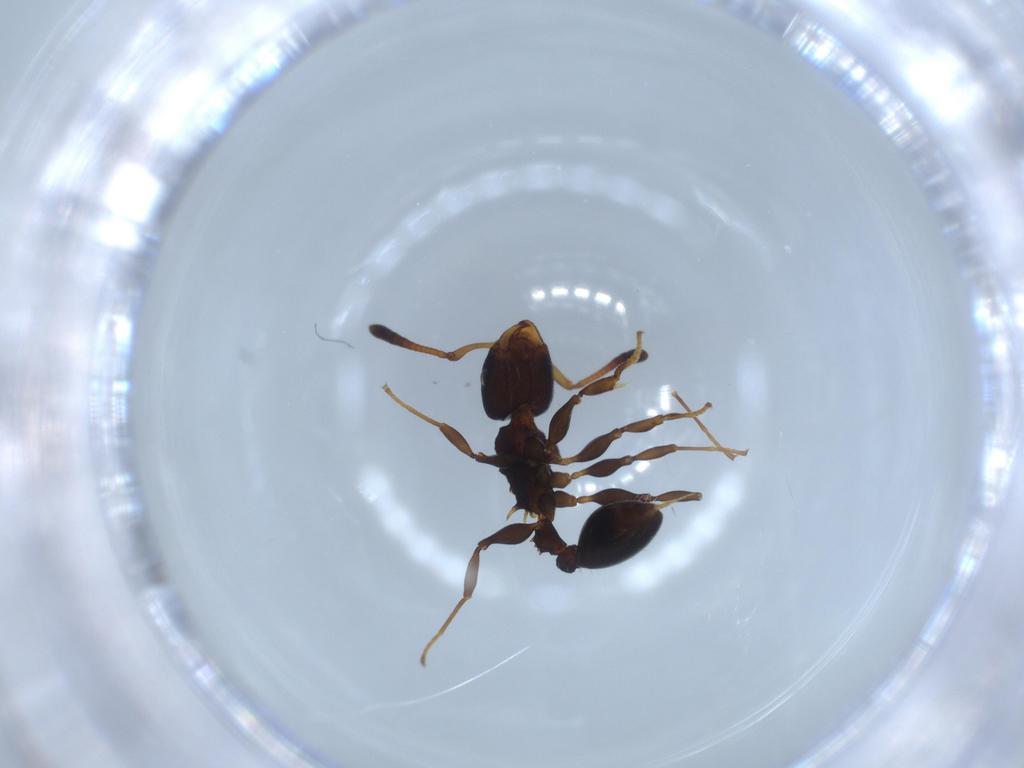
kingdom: Animalia
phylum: Arthropoda
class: Insecta
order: Hymenoptera
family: Formicidae
